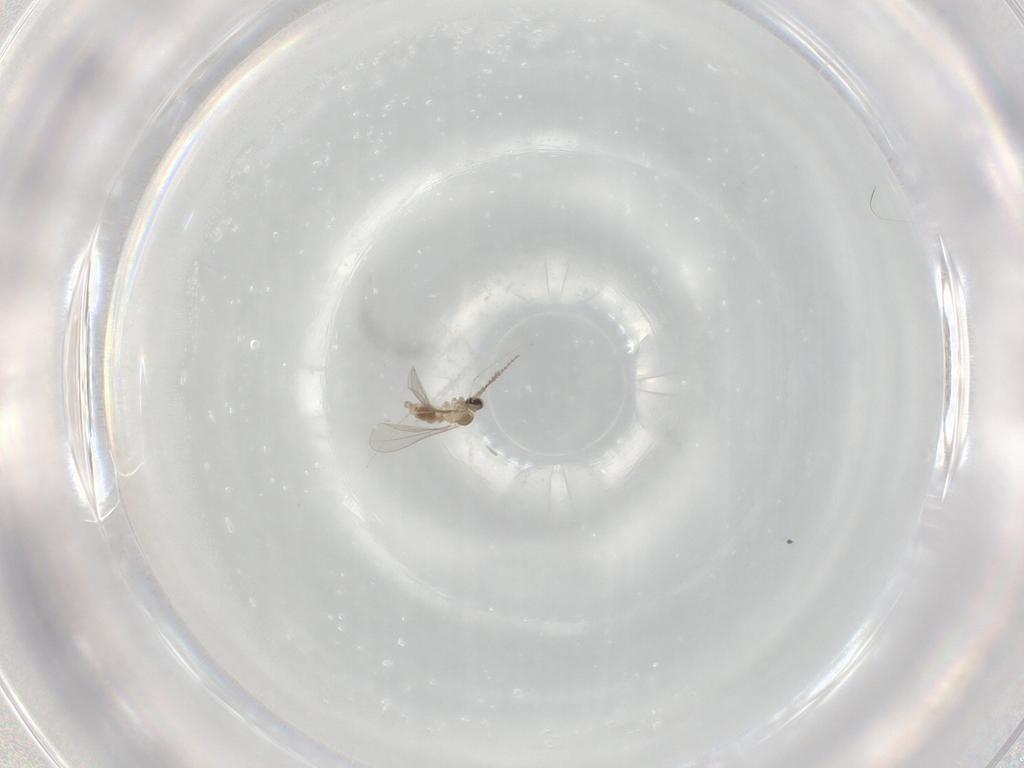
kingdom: Animalia
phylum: Arthropoda
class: Insecta
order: Diptera
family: Cecidomyiidae
